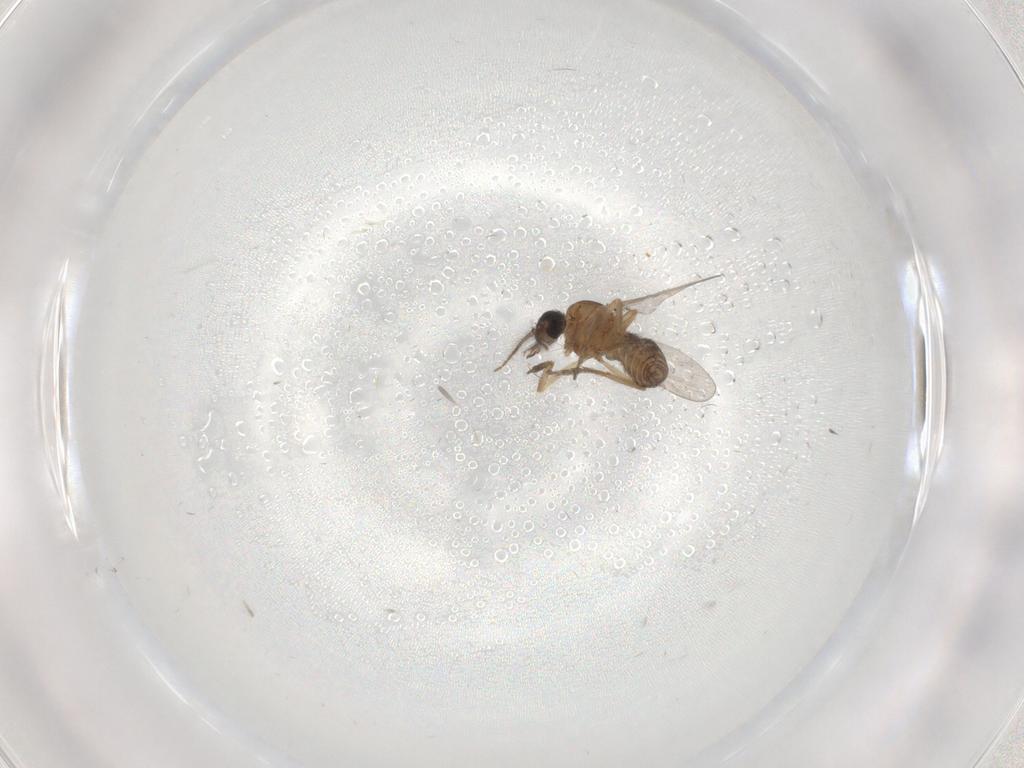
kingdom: Animalia
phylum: Arthropoda
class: Insecta
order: Diptera
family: Ceratopogonidae
